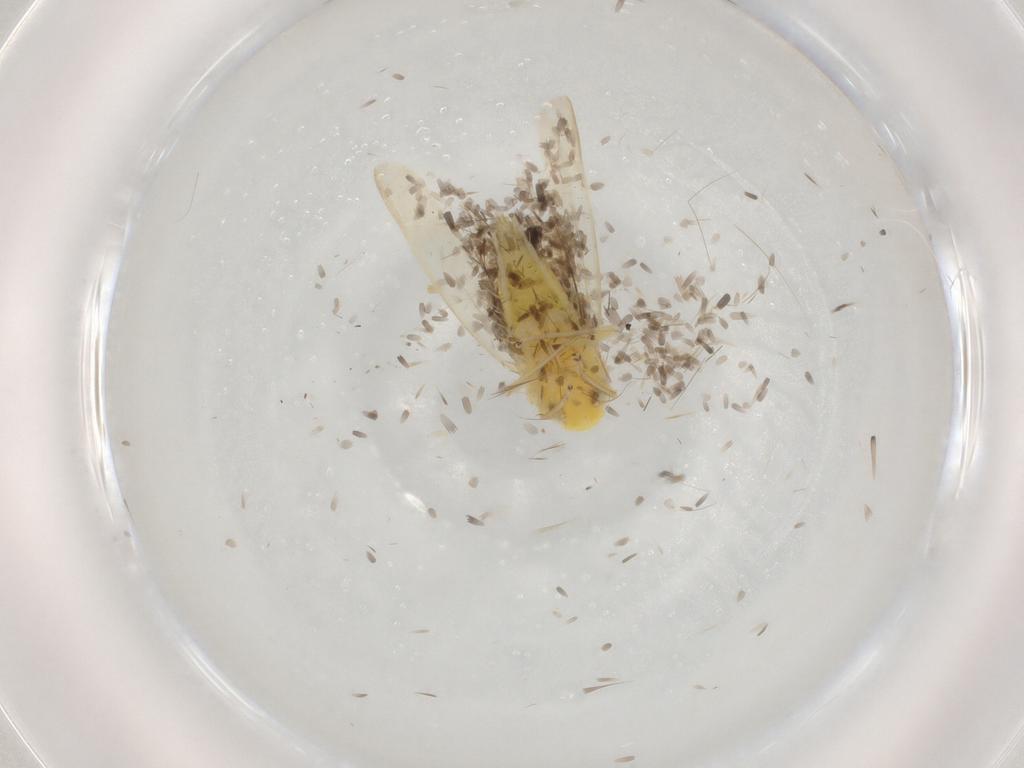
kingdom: Animalia
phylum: Arthropoda
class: Insecta
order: Hemiptera
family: Cicadellidae
